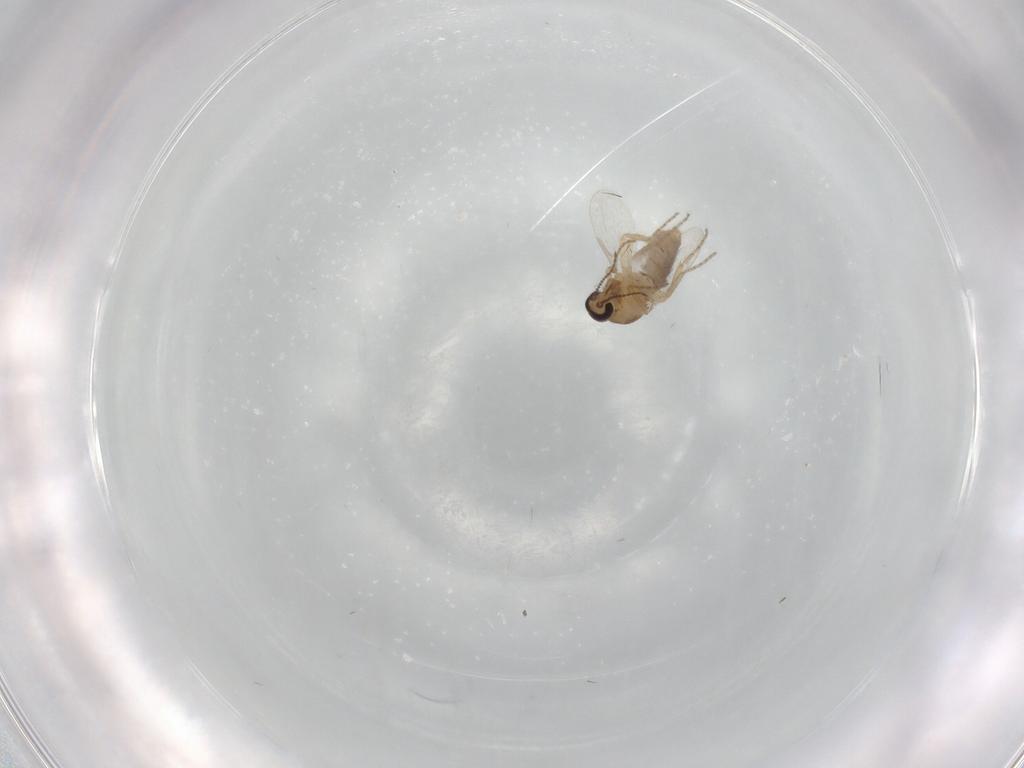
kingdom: Animalia
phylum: Arthropoda
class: Insecta
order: Diptera
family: Ceratopogonidae
